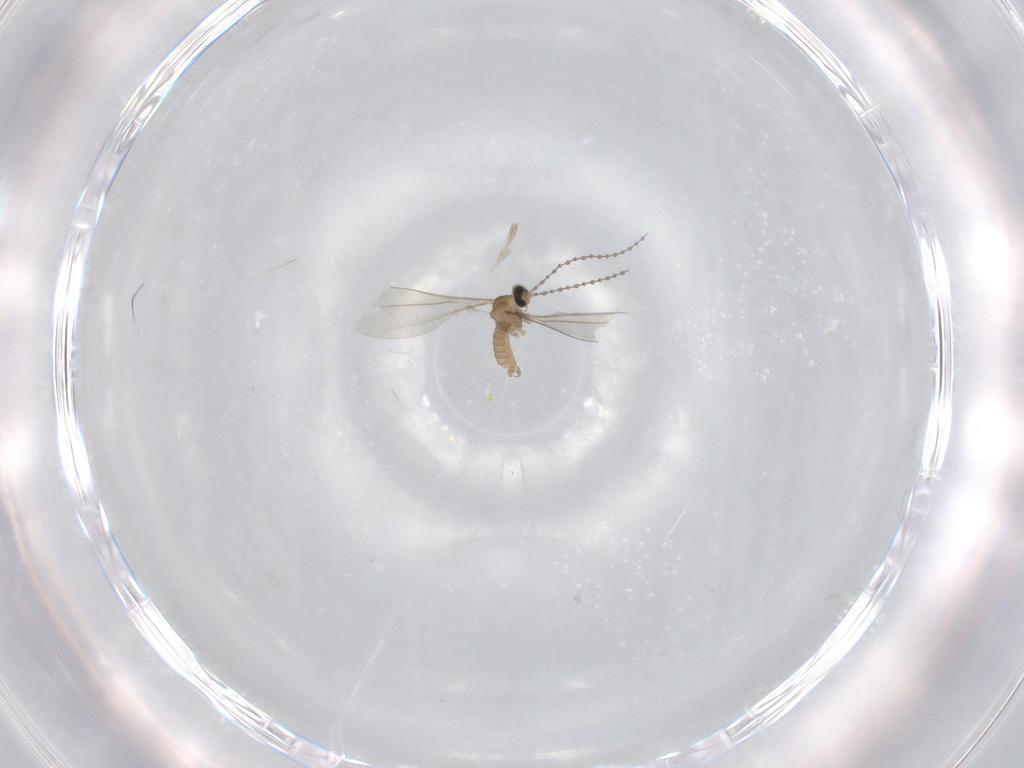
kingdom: Animalia
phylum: Arthropoda
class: Insecta
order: Diptera
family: Cecidomyiidae
